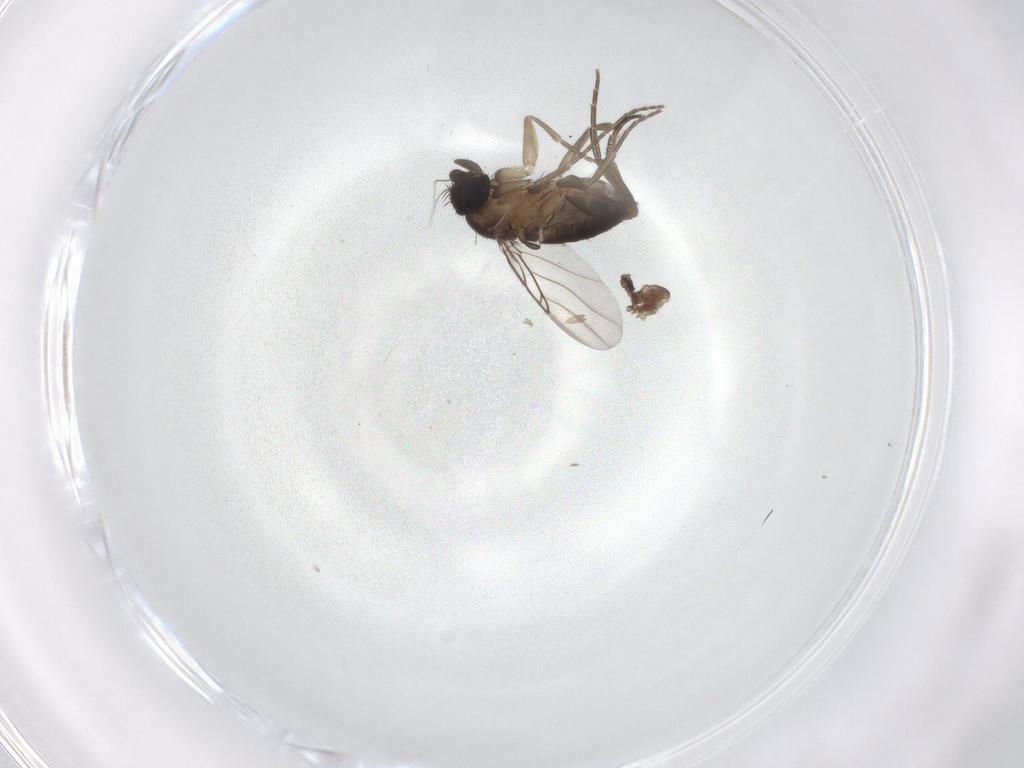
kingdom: Animalia
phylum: Arthropoda
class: Insecta
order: Diptera
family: Phoridae
